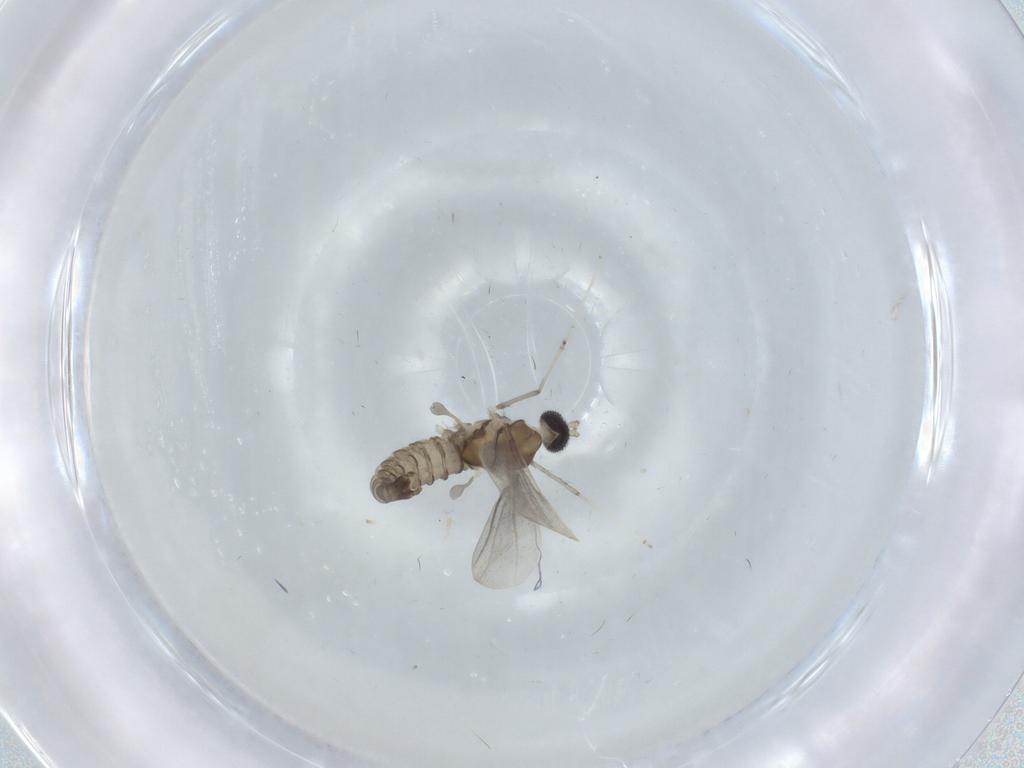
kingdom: Animalia
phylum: Arthropoda
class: Insecta
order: Diptera
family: Cecidomyiidae
